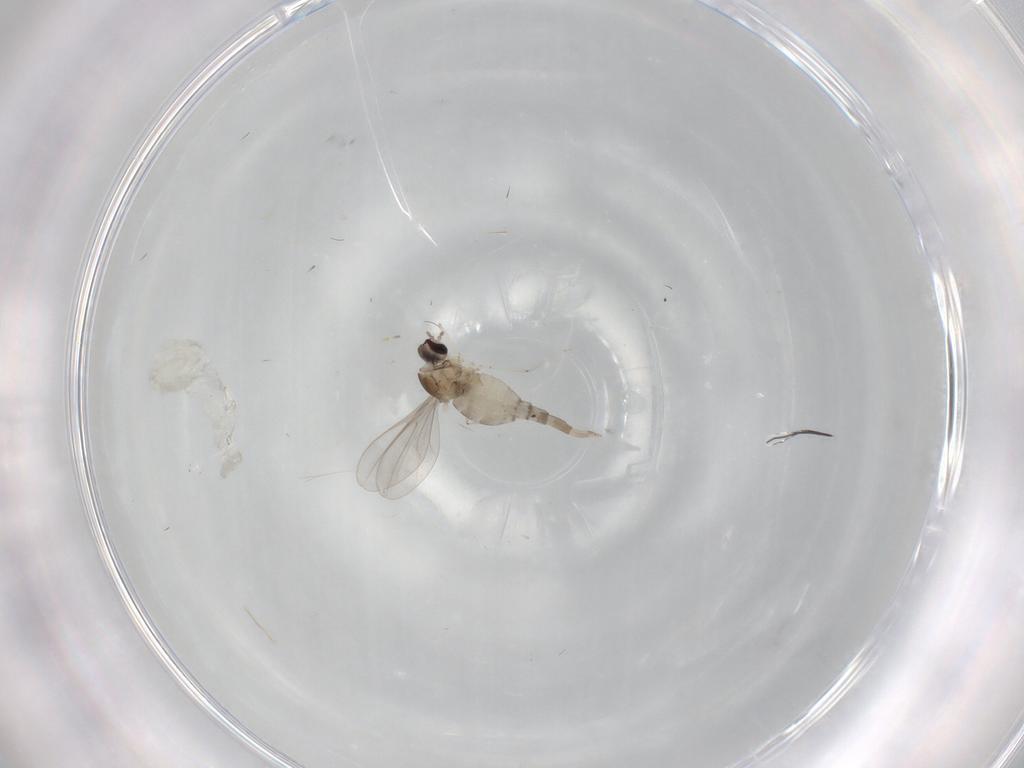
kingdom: Animalia
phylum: Arthropoda
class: Insecta
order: Diptera
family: Cecidomyiidae
